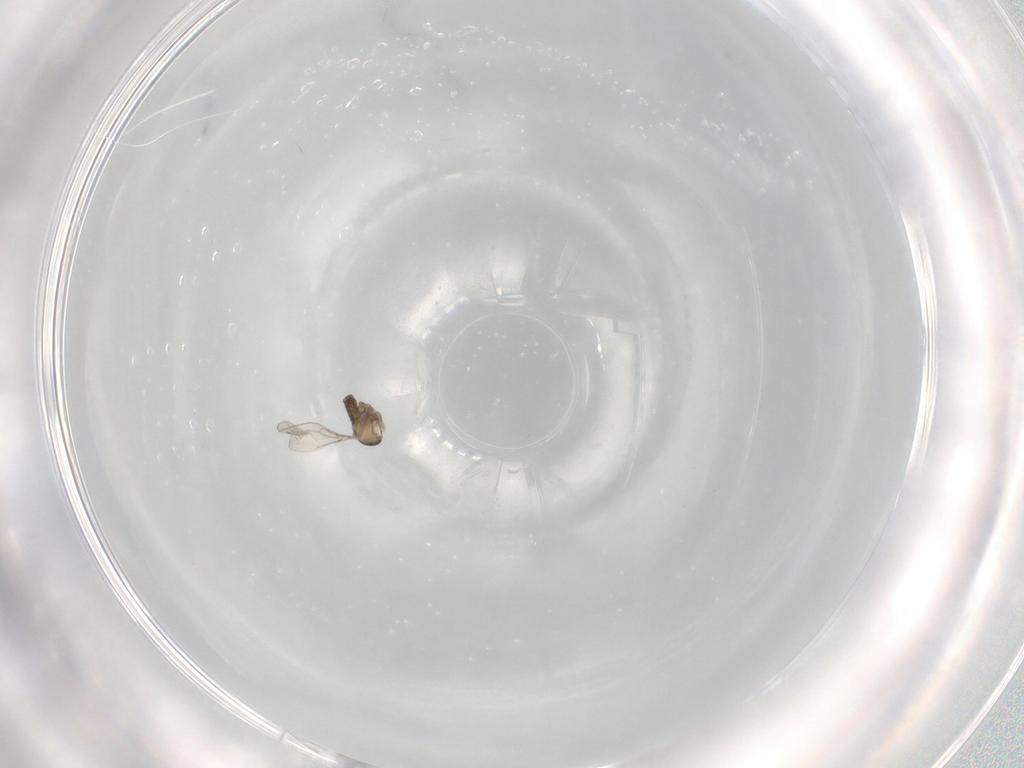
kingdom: Animalia
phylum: Arthropoda
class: Insecta
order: Diptera
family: Cecidomyiidae
